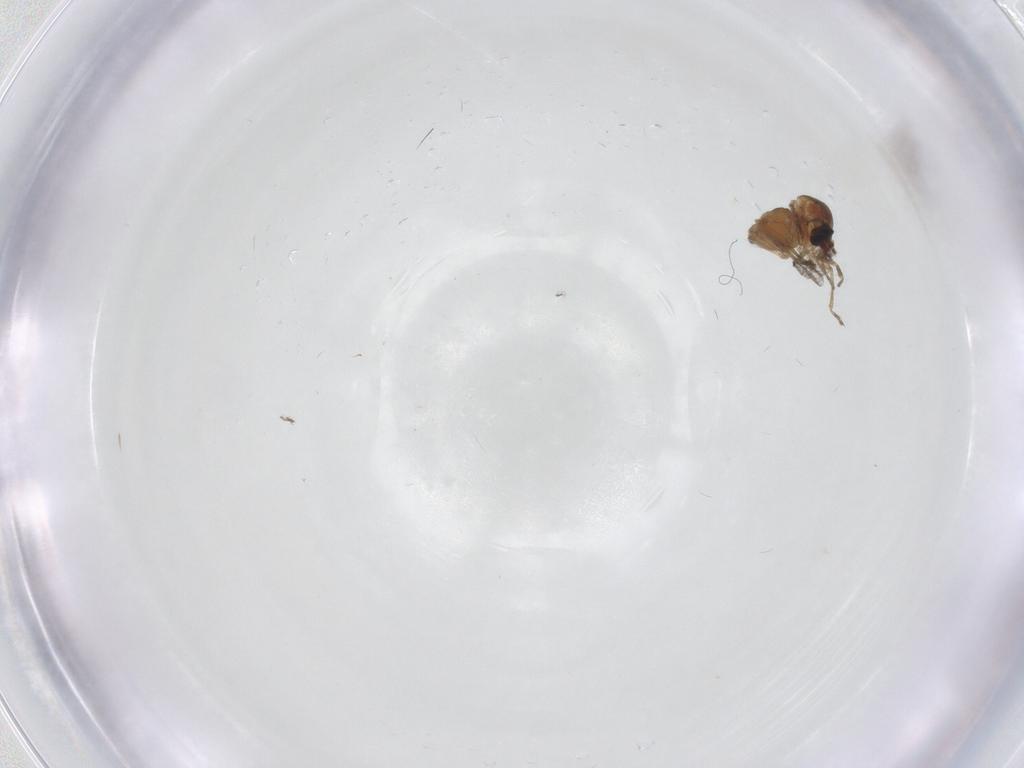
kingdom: Animalia
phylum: Arthropoda
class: Insecta
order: Diptera
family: Ceratopogonidae
